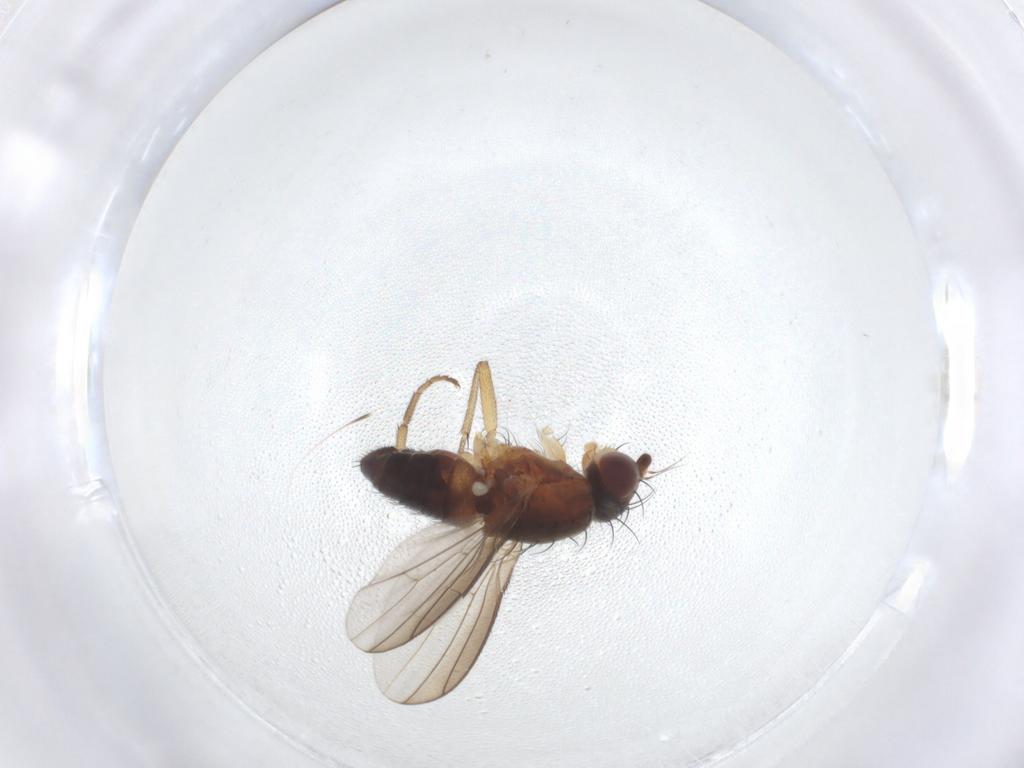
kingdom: Animalia
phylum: Arthropoda
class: Insecta
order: Diptera
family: Heleomyzidae
